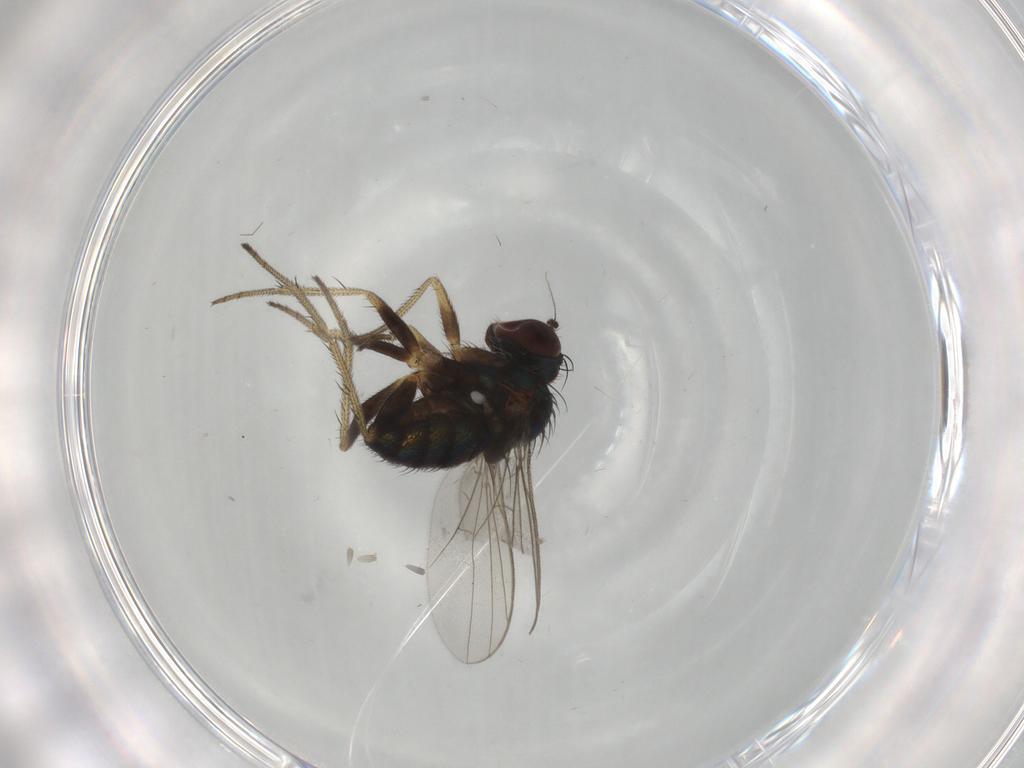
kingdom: Animalia
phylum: Arthropoda
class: Insecta
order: Diptera
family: Dolichopodidae
